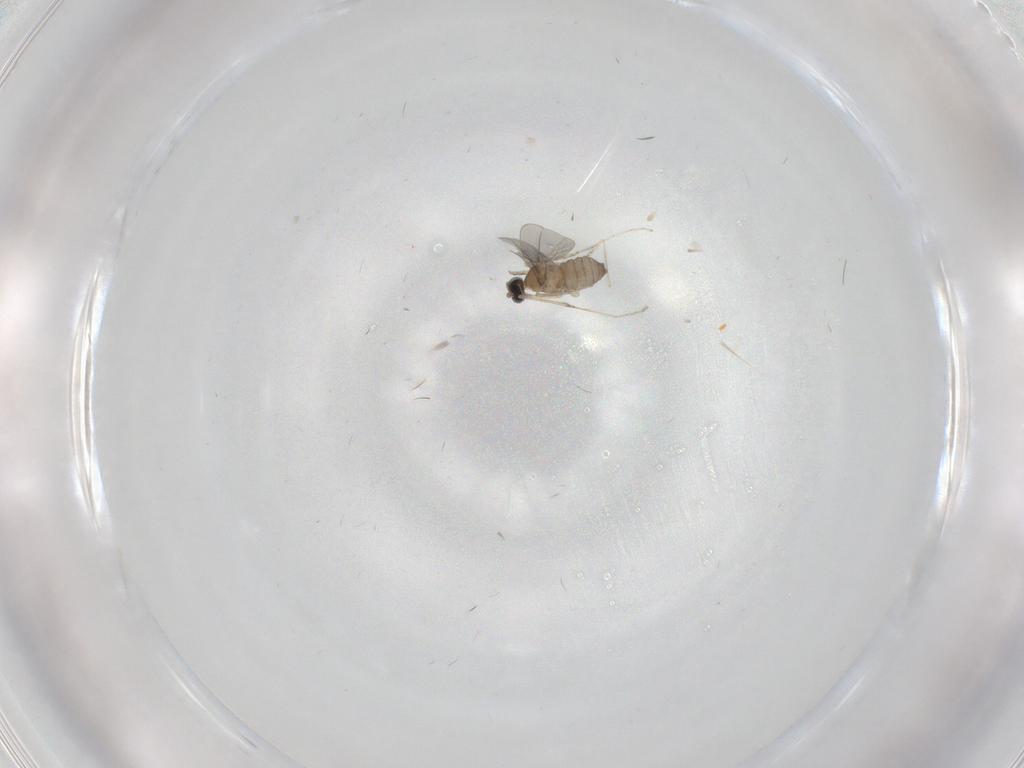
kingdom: Animalia
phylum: Arthropoda
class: Insecta
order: Diptera
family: Cecidomyiidae
